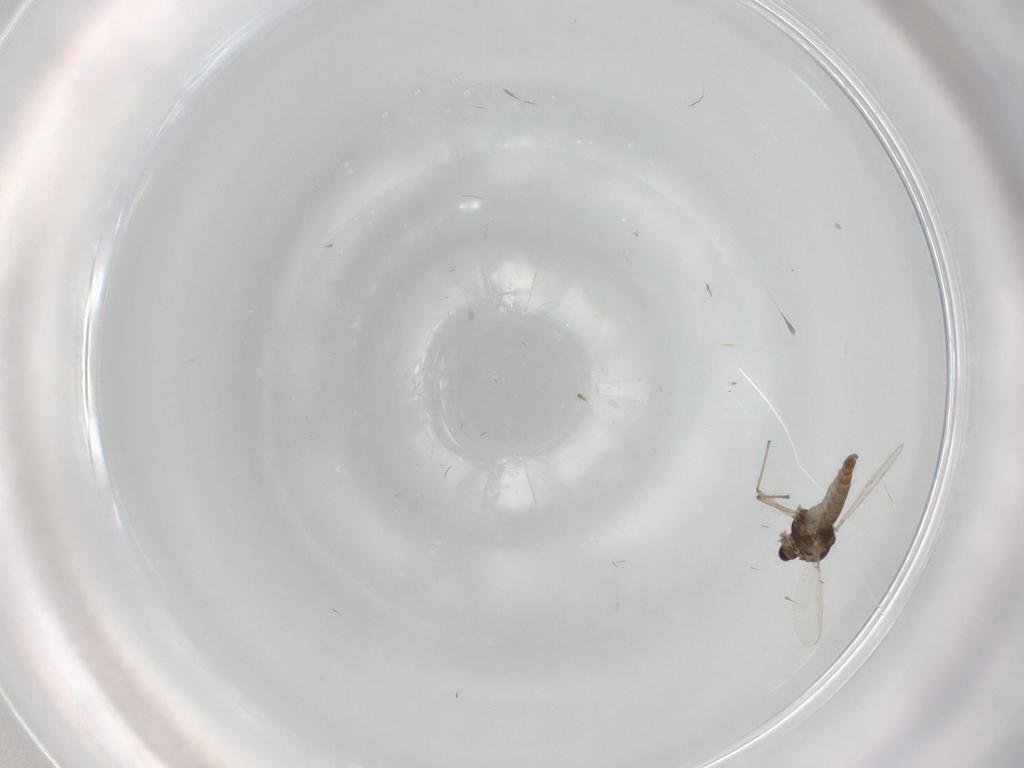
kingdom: Animalia
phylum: Arthropoda
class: Insecta
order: Diptera
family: Chironomidae
